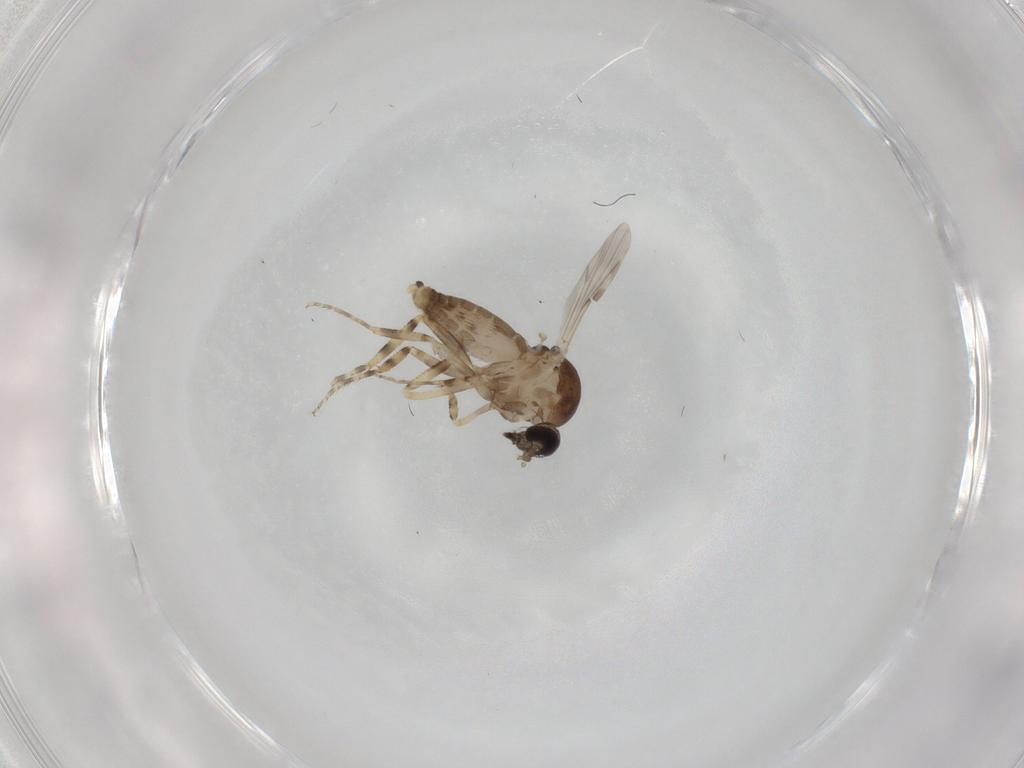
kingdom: Animalia
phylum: Arthropoda
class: Insecta
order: Diptera
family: Ceratopogonidae
